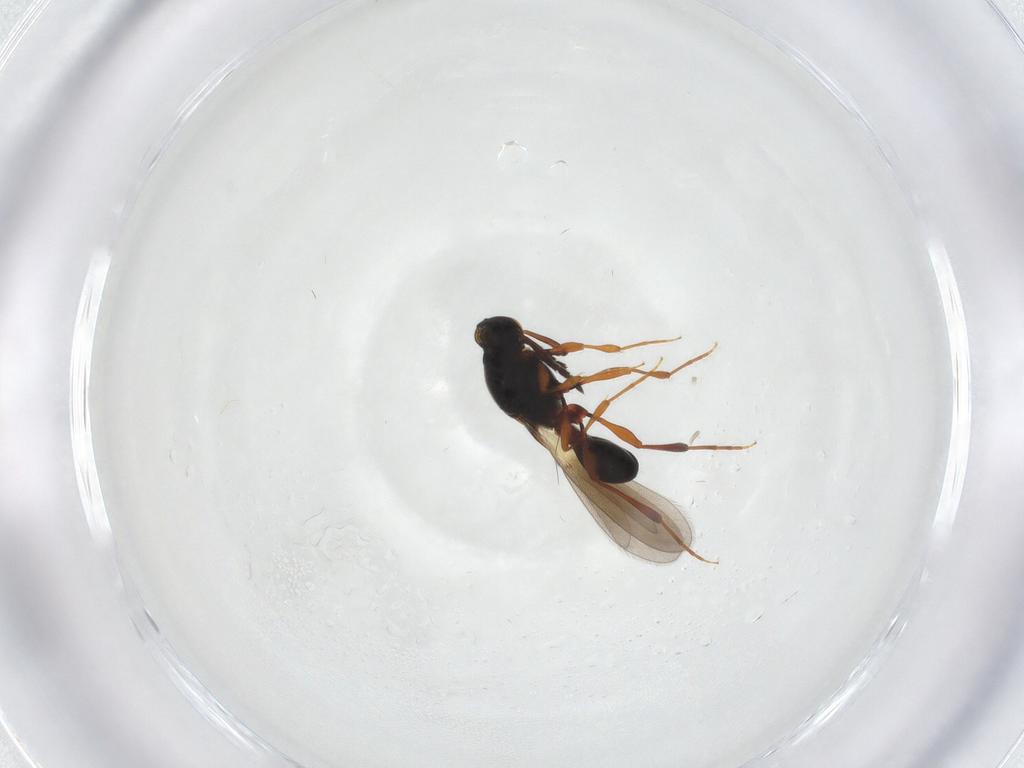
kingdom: Animalia
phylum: Arthropoda
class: Insecta
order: Hymenoptera
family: Platygastridae
